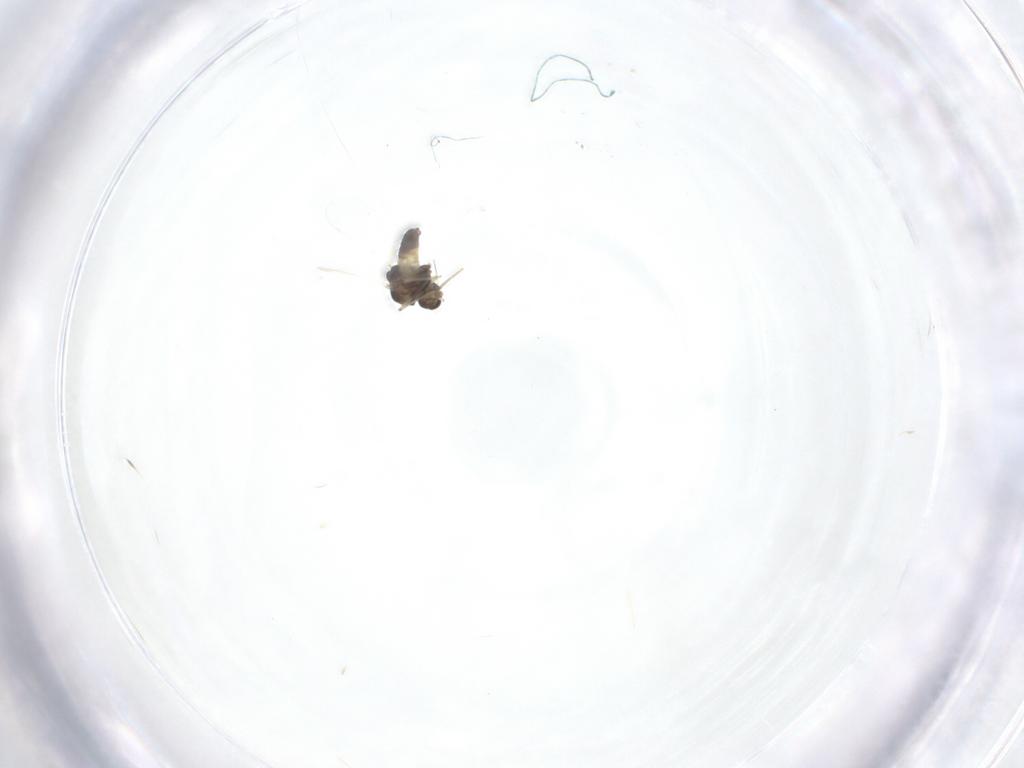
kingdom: Animalia
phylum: Arthropoda
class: Insecta
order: Diptera
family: Chironomidae
